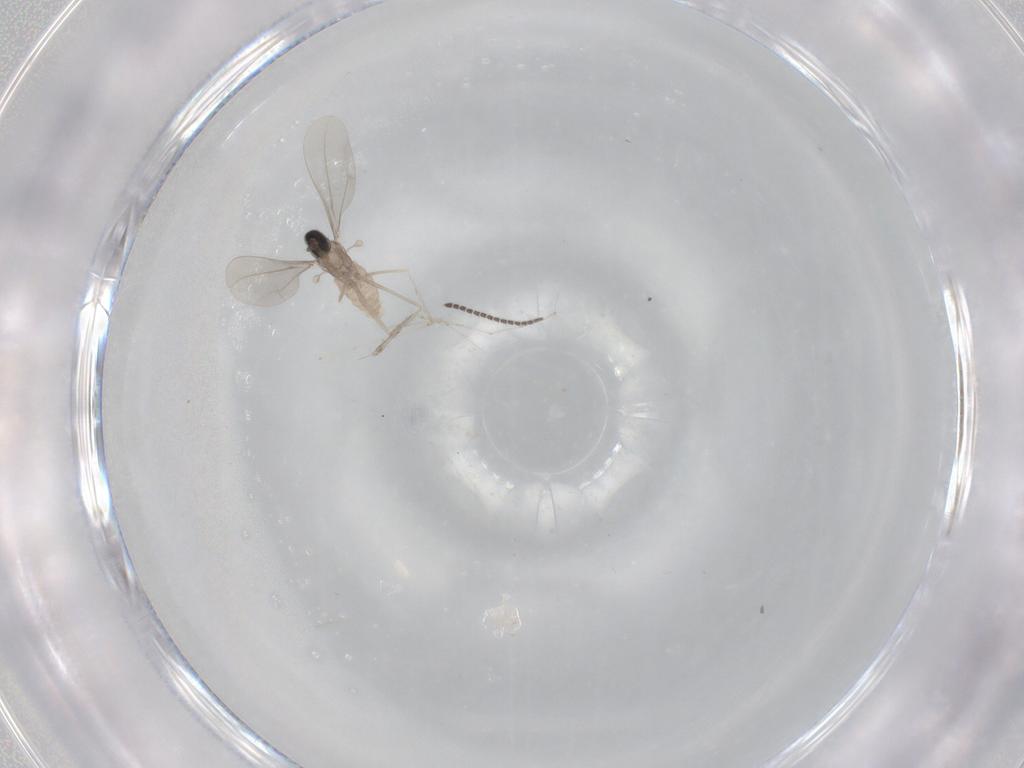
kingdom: Animalia
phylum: Arthropoda
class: Insecta
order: Diptera
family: Cecidomyiidae
